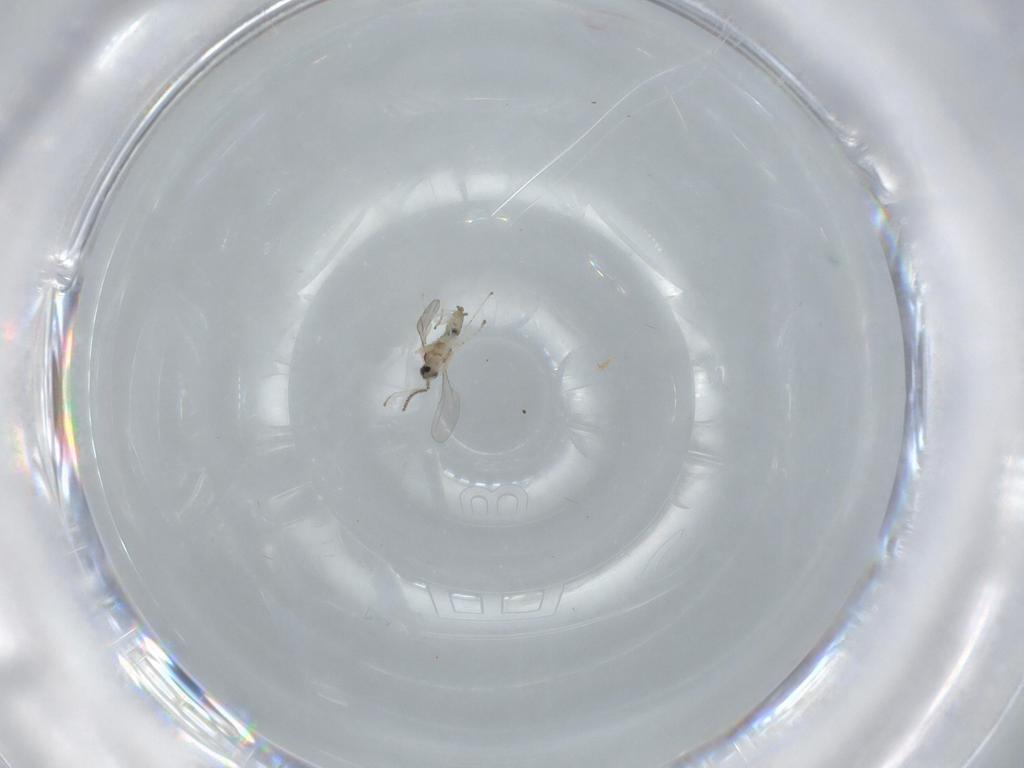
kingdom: Animalia
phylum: Arthropoda
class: Insecta
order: Diptera
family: Cecidomyiidae
